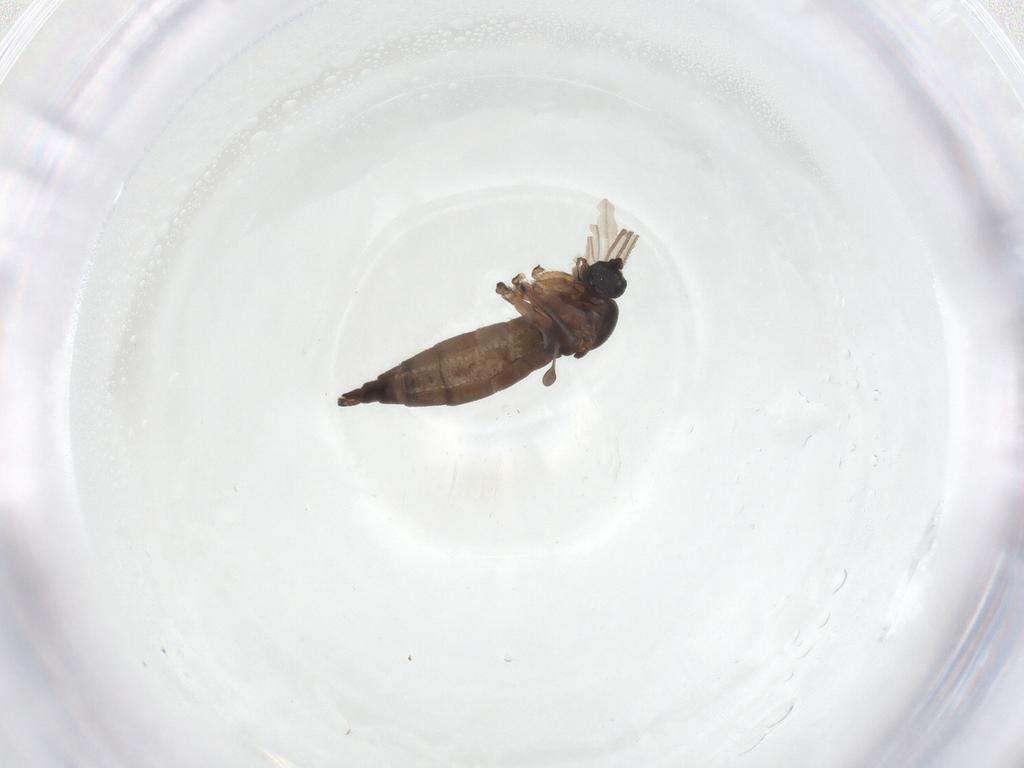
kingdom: Animalia
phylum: Arthropoda
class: Insecta
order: Diptera
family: Sciaridae
